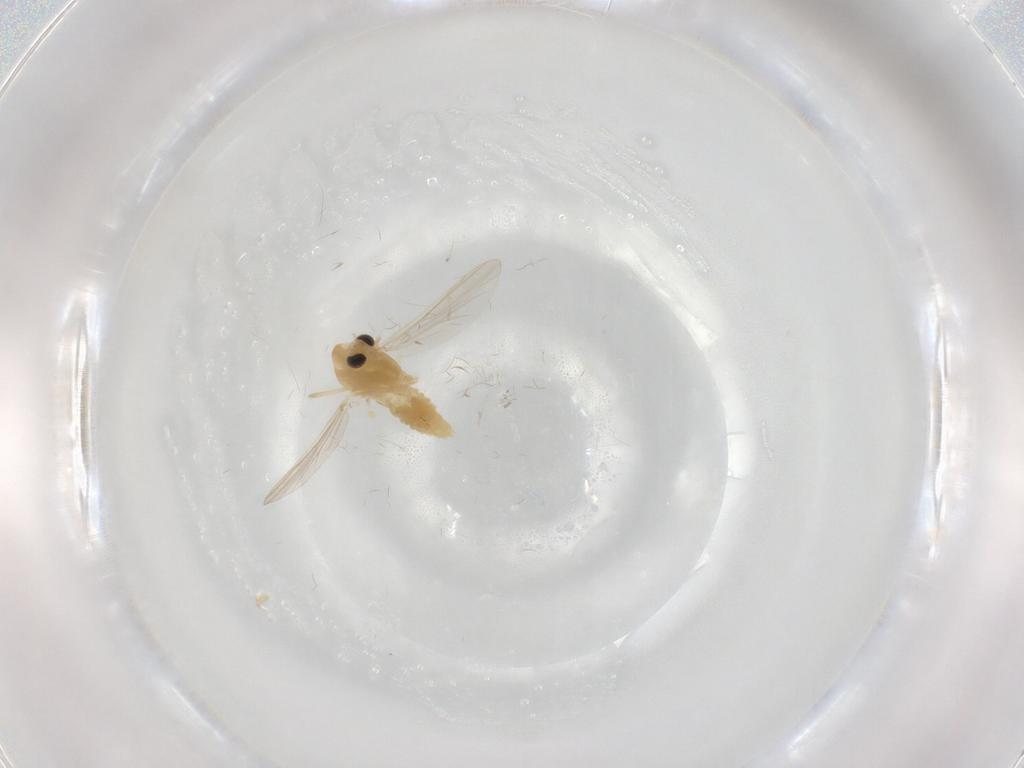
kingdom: Animalia
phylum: Arthropoda
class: Insecta
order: Diptera
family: Chironomidae
